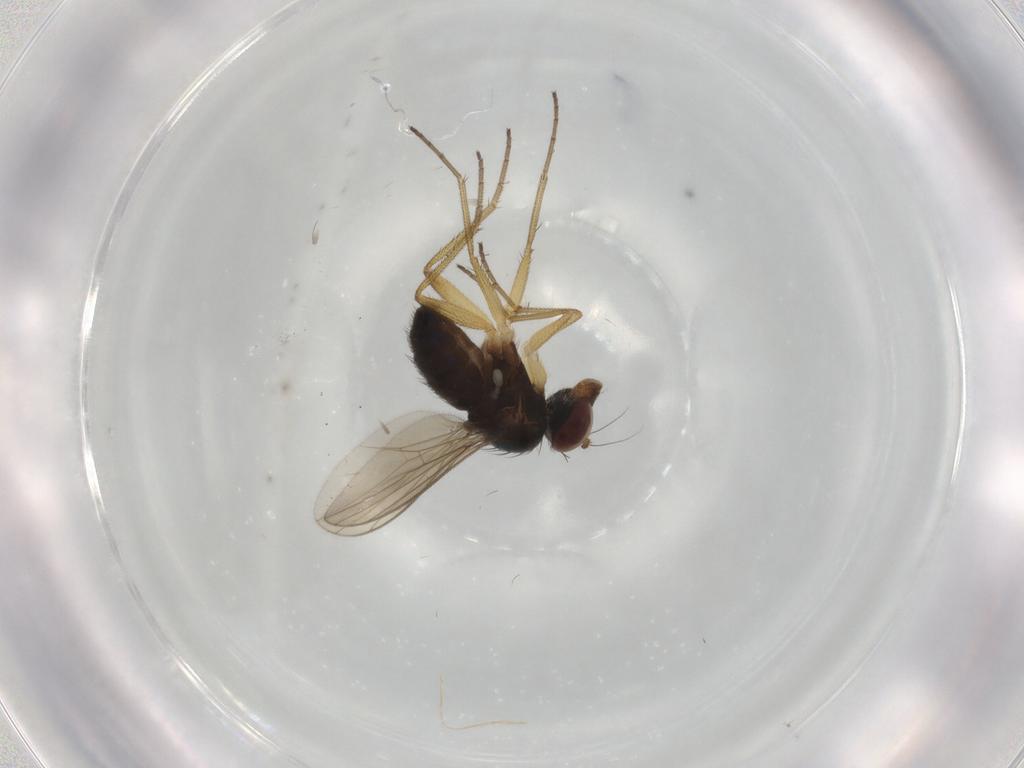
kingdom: Animalia
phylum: Arthropoda
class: Insecta
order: Diptera
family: Dolichopodidae
